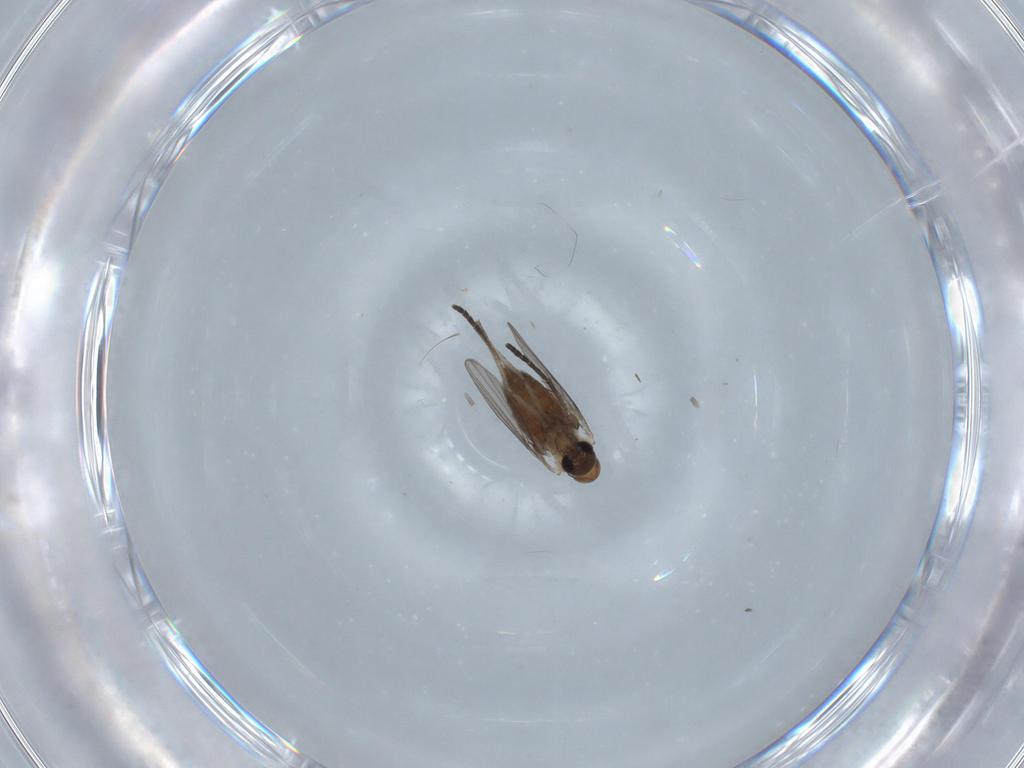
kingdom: Animalia
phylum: Arthropoda
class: Insecta
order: Diptera
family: Psychodidae
